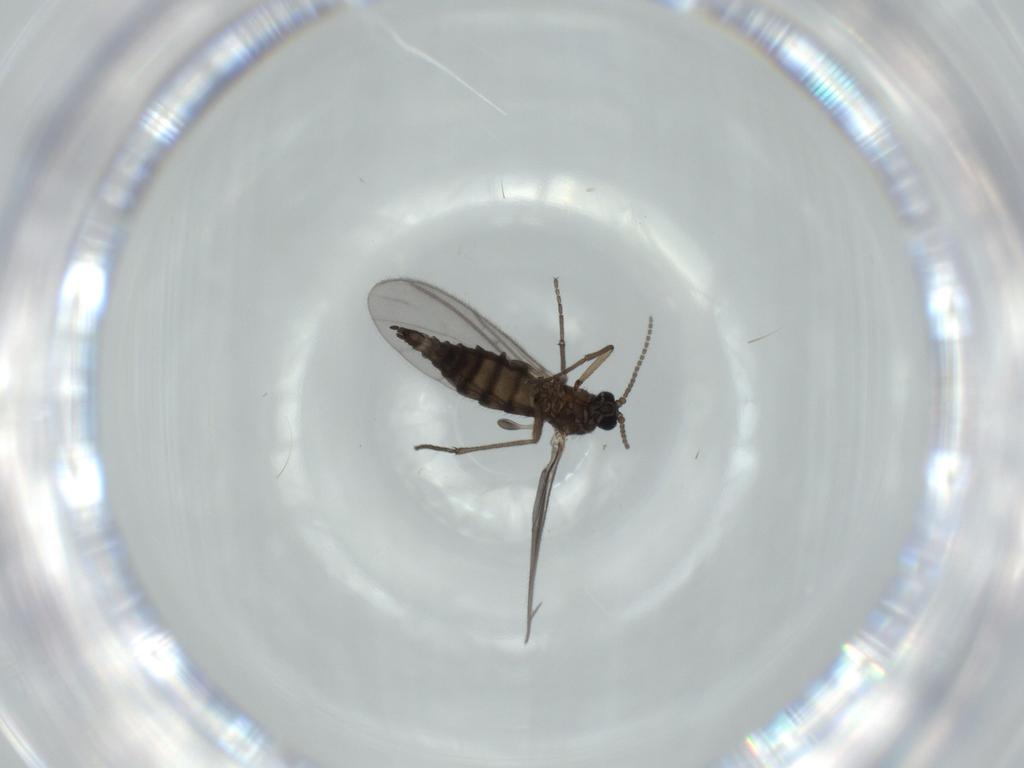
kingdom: Animalia
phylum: Arthropoda
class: Insecta
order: Diptera
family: Sciaridae
